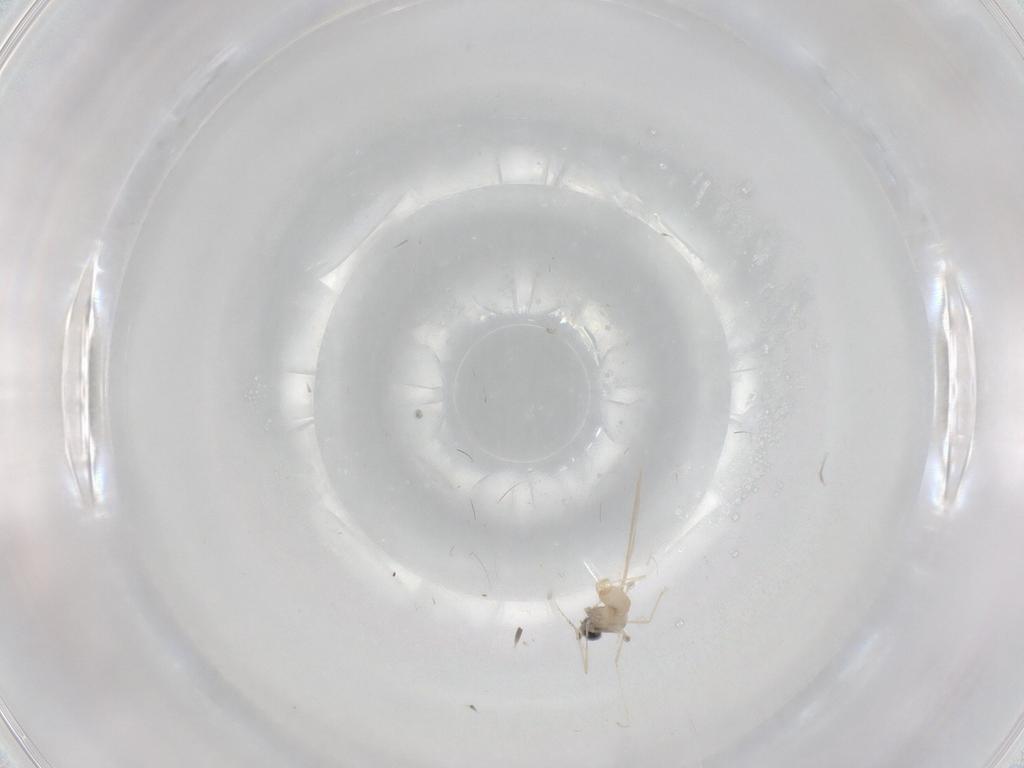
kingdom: Animalia
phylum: Arthropoda
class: Insecta
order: Diptera
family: Cecidomyiidae
